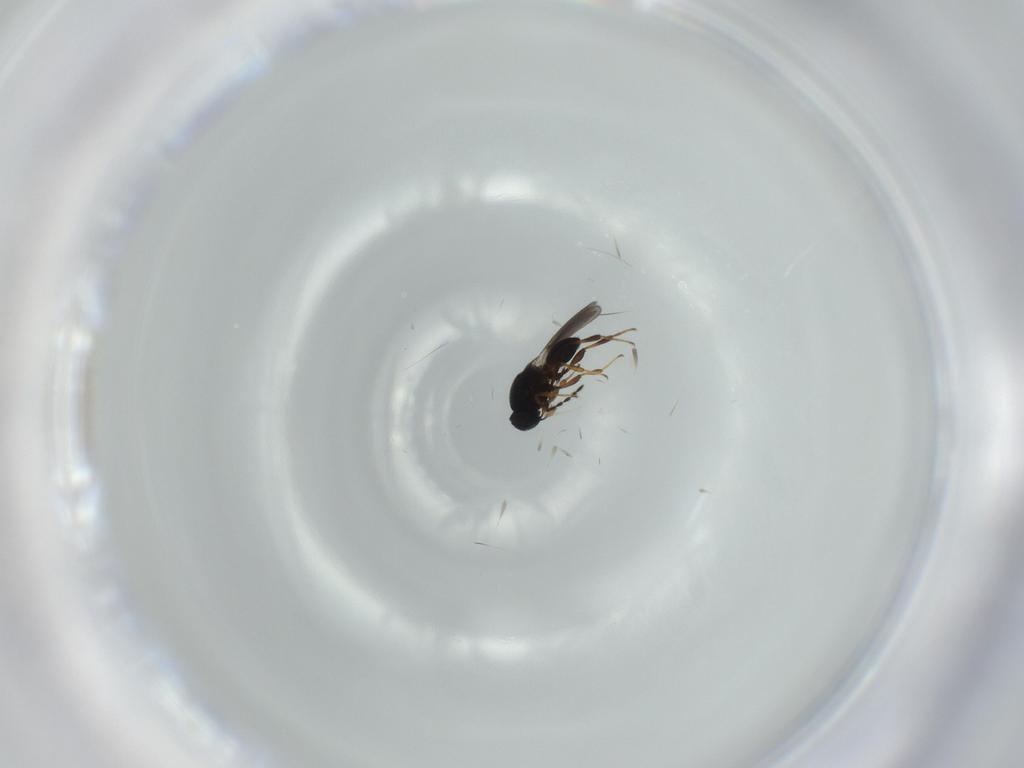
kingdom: Animalia
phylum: Arthropoda
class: Insecta
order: Hymenoptera
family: Platygastridae
